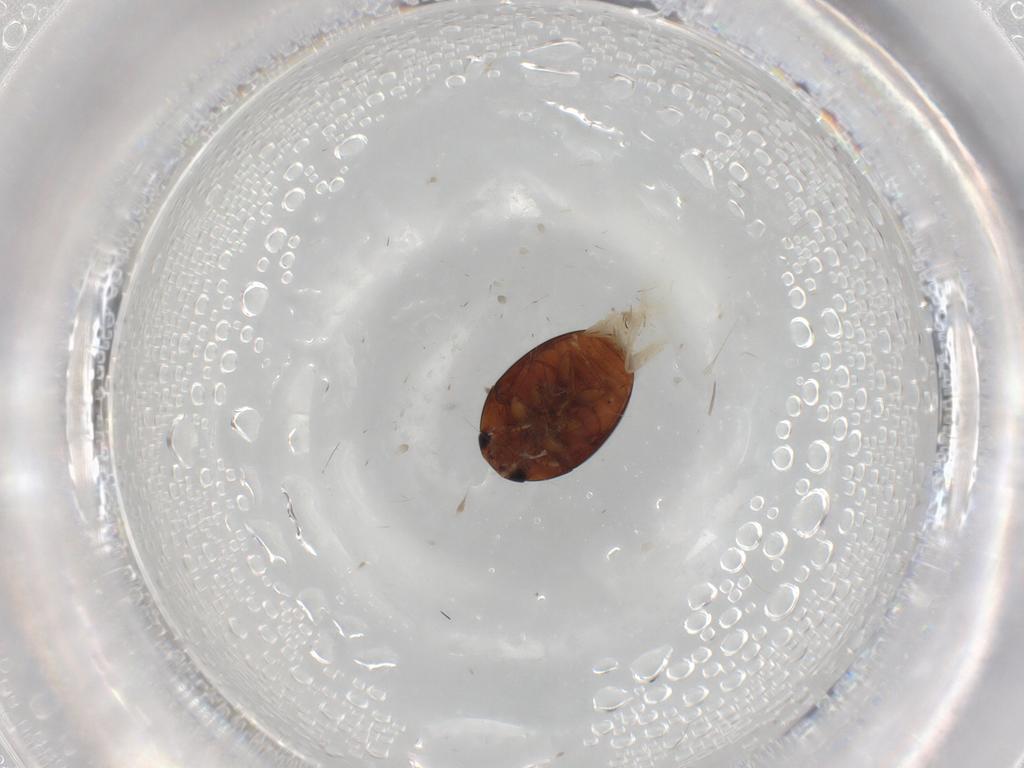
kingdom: Animalia
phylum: Arthropoda
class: Insecta
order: Coleoptera
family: Phalacridae
